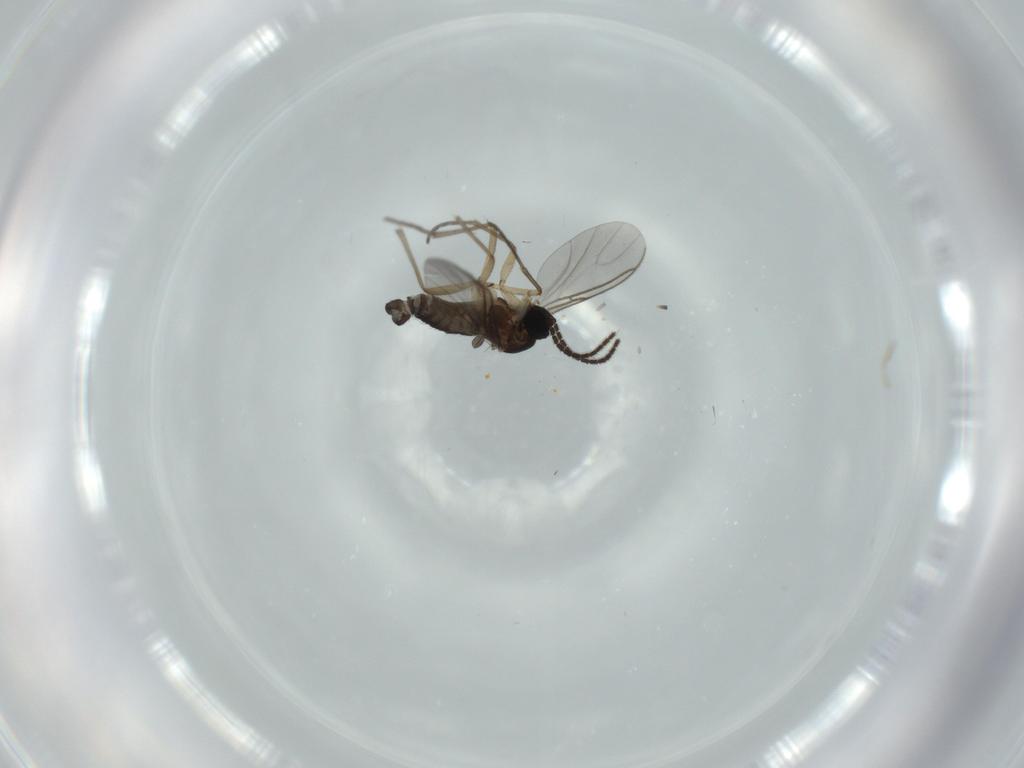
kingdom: Animalia
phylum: Arthropoda
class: Insecta
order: Diptera
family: Sciaridae
